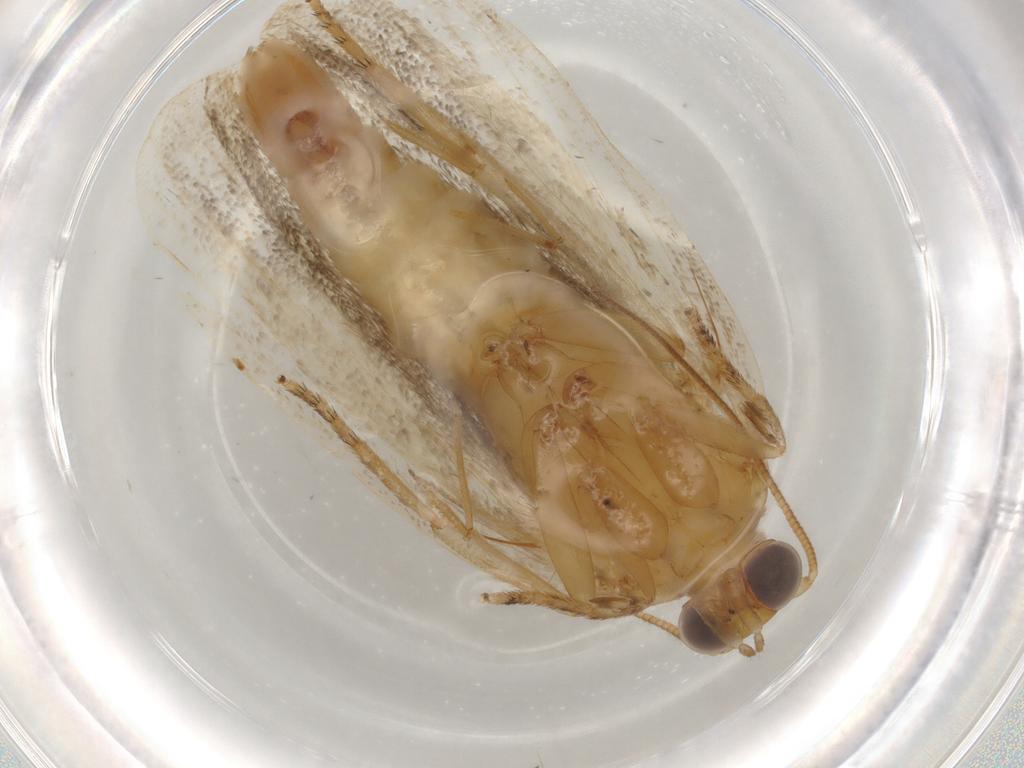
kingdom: Animalia
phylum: Arthropoda
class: Insecta
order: Lepidoptera
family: Tortricidae
